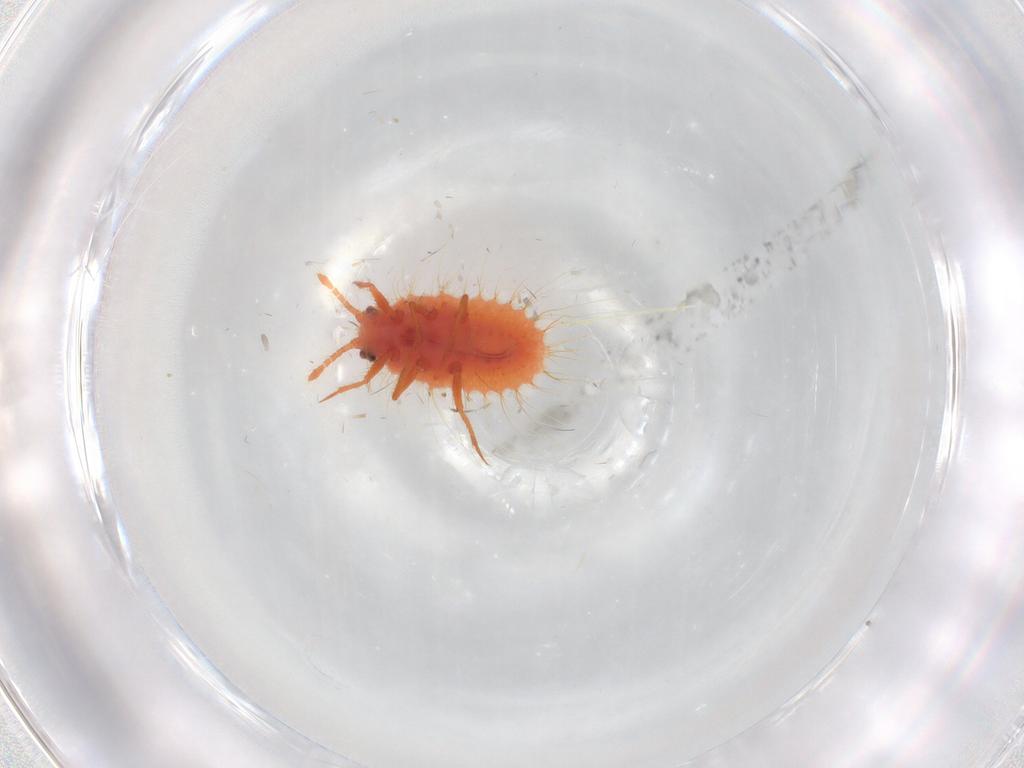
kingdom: Animalia
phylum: Arthropoda
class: Insecta
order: Hemiptera
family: Coccoidea_incertae_sedis
